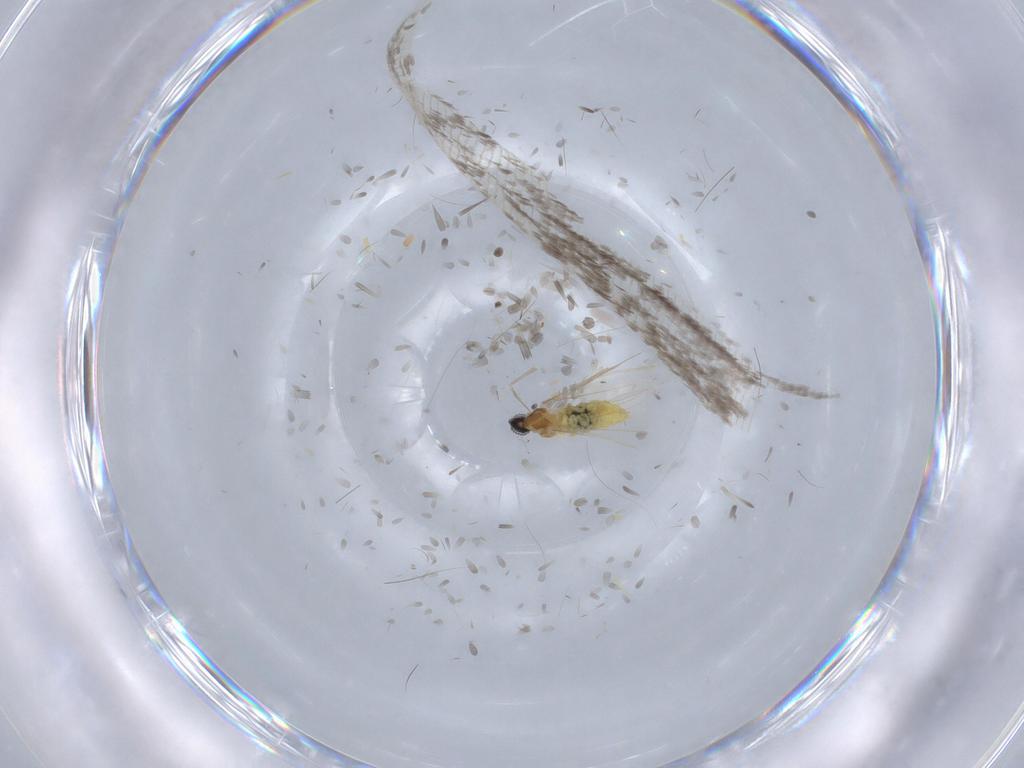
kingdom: Animalia
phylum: Arthropoda
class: Insecta
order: Diptera
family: Cecidomyiidae
